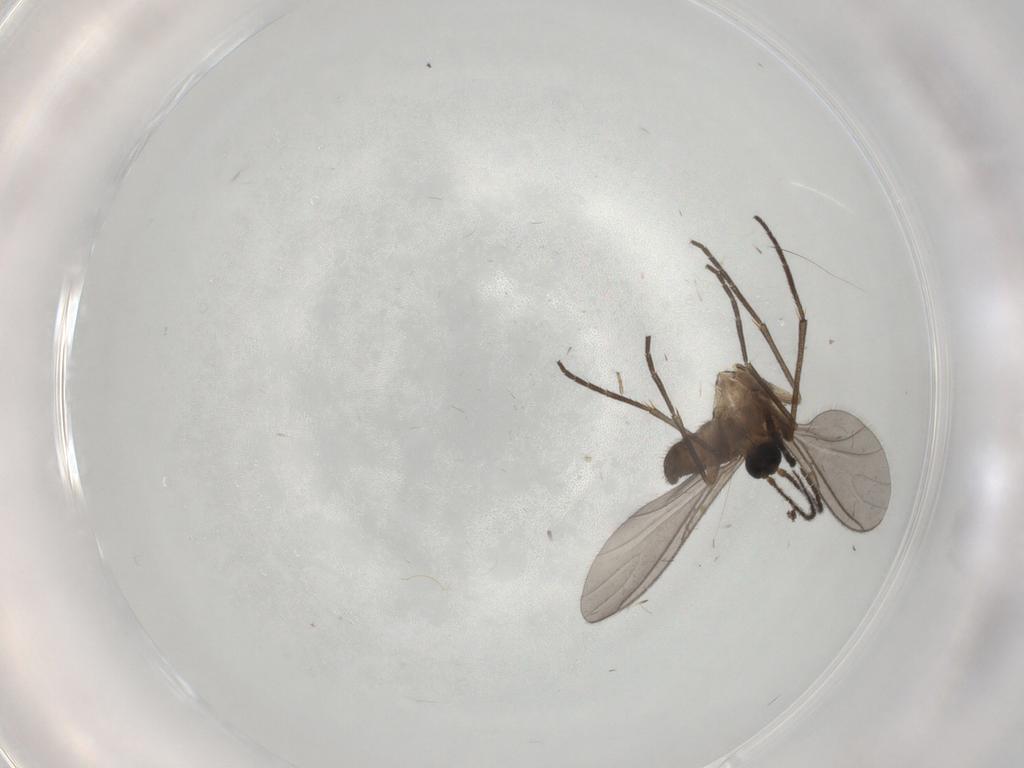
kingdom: Animalia
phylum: Arthropoda
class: Insecta
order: Diptera
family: Sciaridae
